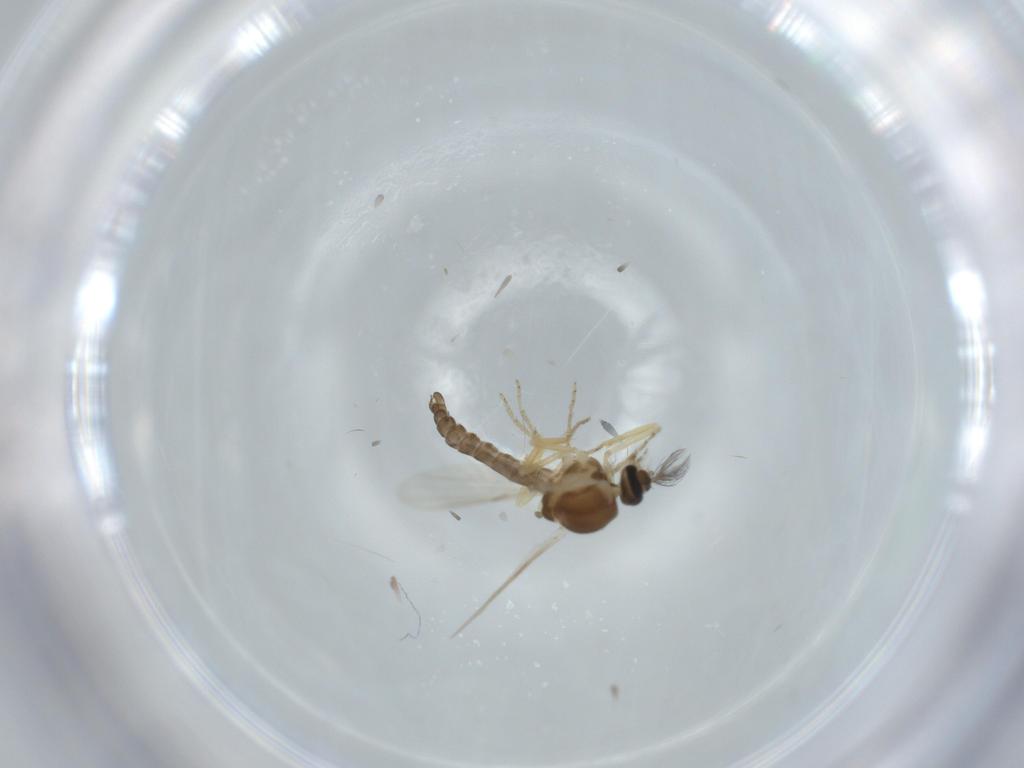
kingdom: Animalia
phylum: Arthropoda
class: Insecta
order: Diptera
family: Ceratopogonidae
